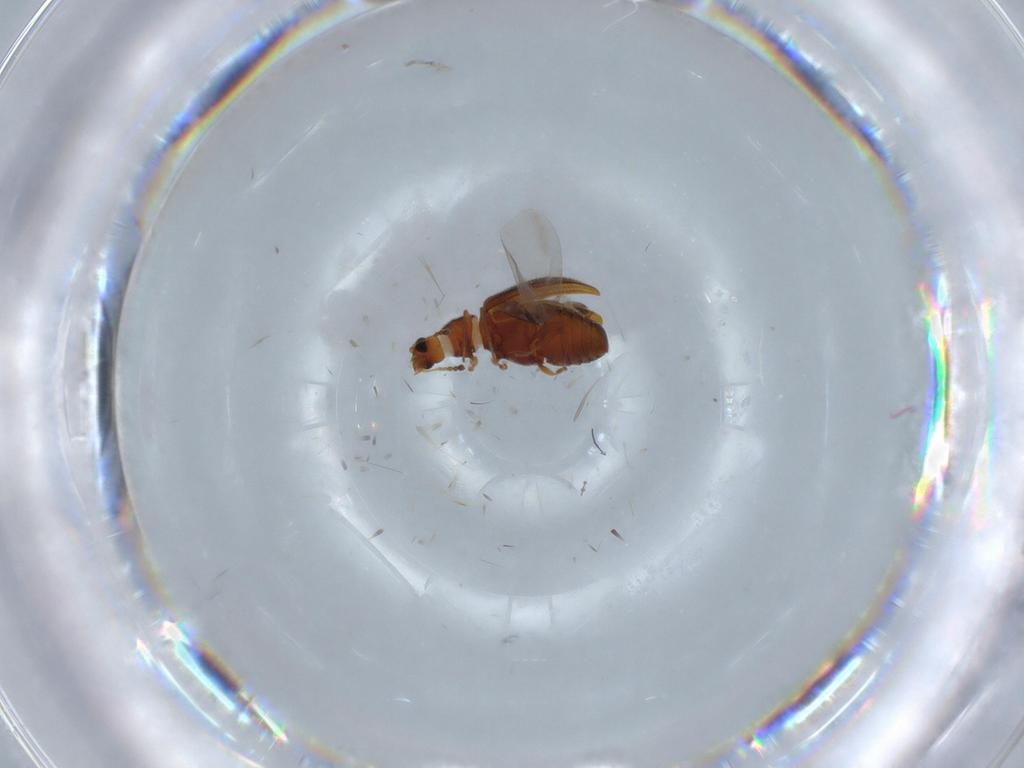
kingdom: Animalia
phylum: Arthropoda
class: Insecta
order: Coleoptera
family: Latridiidae
